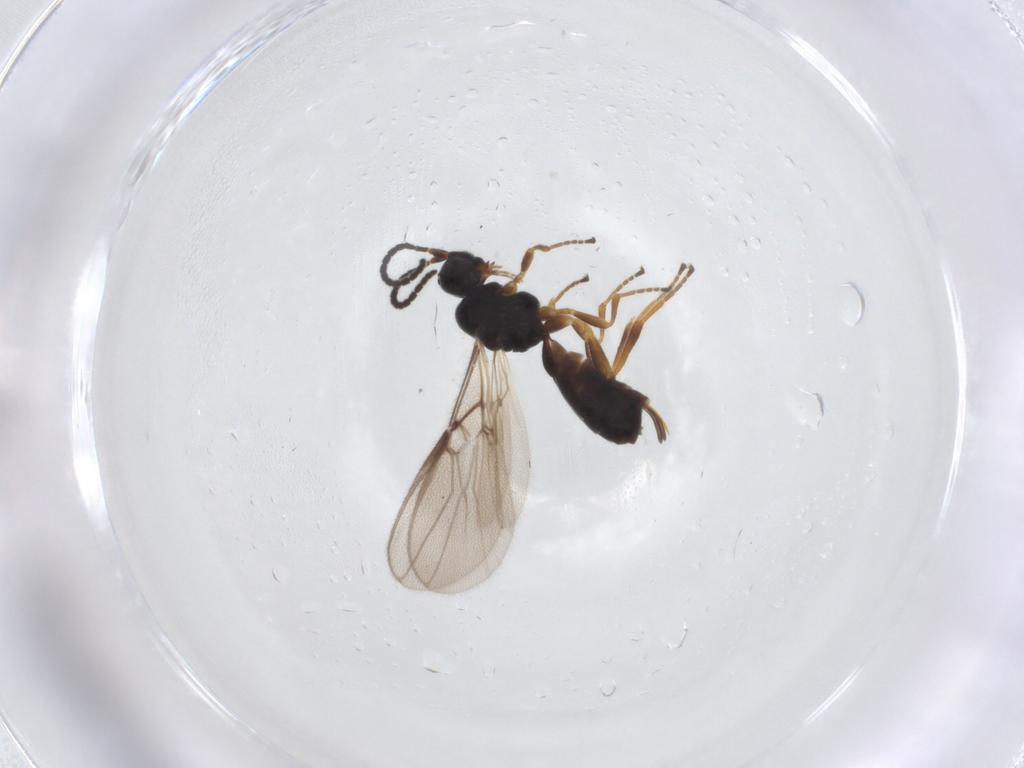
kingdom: Animalia
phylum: Arthropoda
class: Insecta
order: Hymenoptera
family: Braconidae
